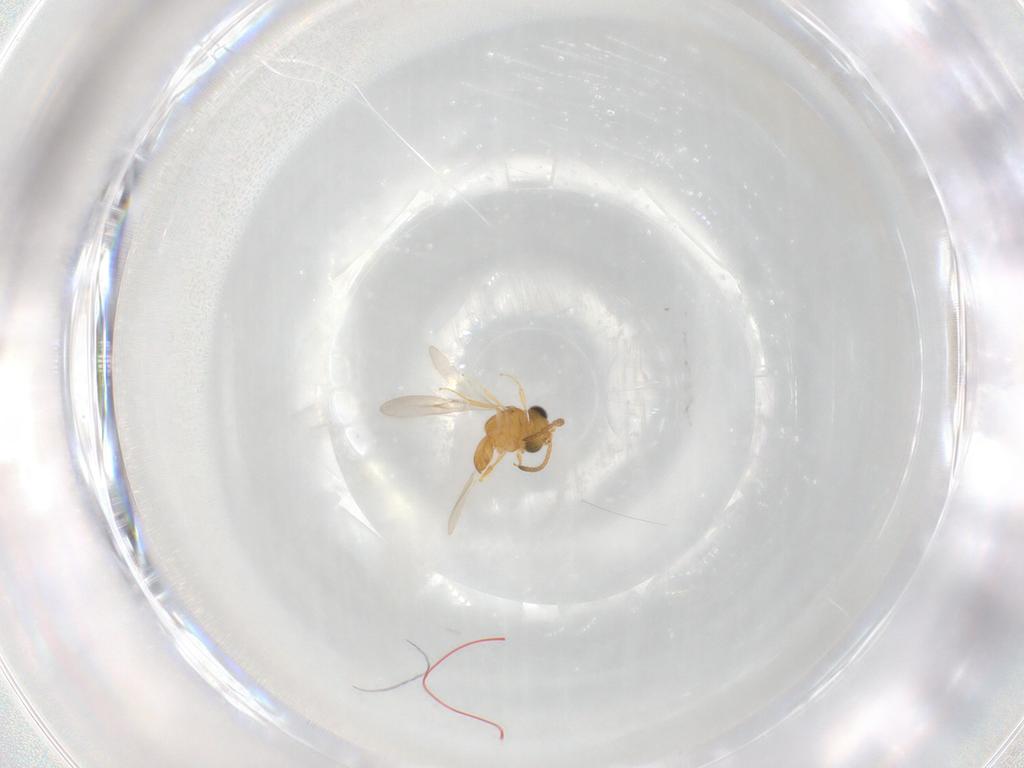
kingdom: Animalia
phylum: Arthropoda
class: Insecta
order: Hymenoptera
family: Scelionidae
